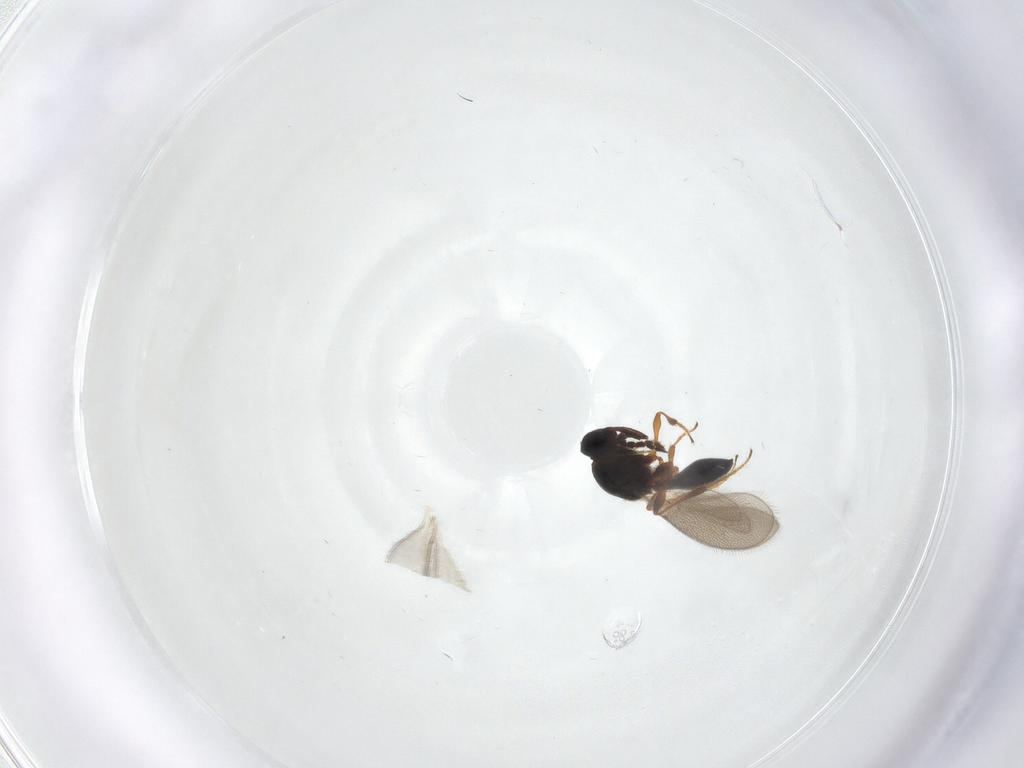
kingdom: Animalia
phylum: Arthropoda
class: Insecta
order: Hymenoptera
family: Platygastridae
